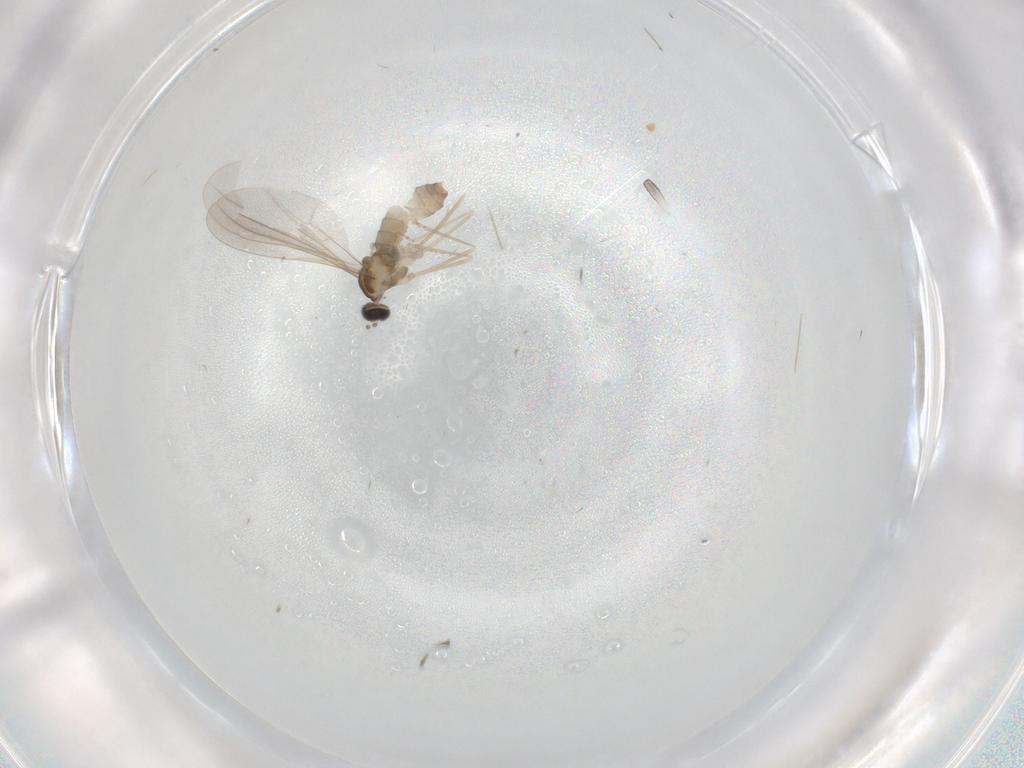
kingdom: Animalia
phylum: Arthropoda
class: Insecta
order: Diptera
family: Cecidomyiidae
